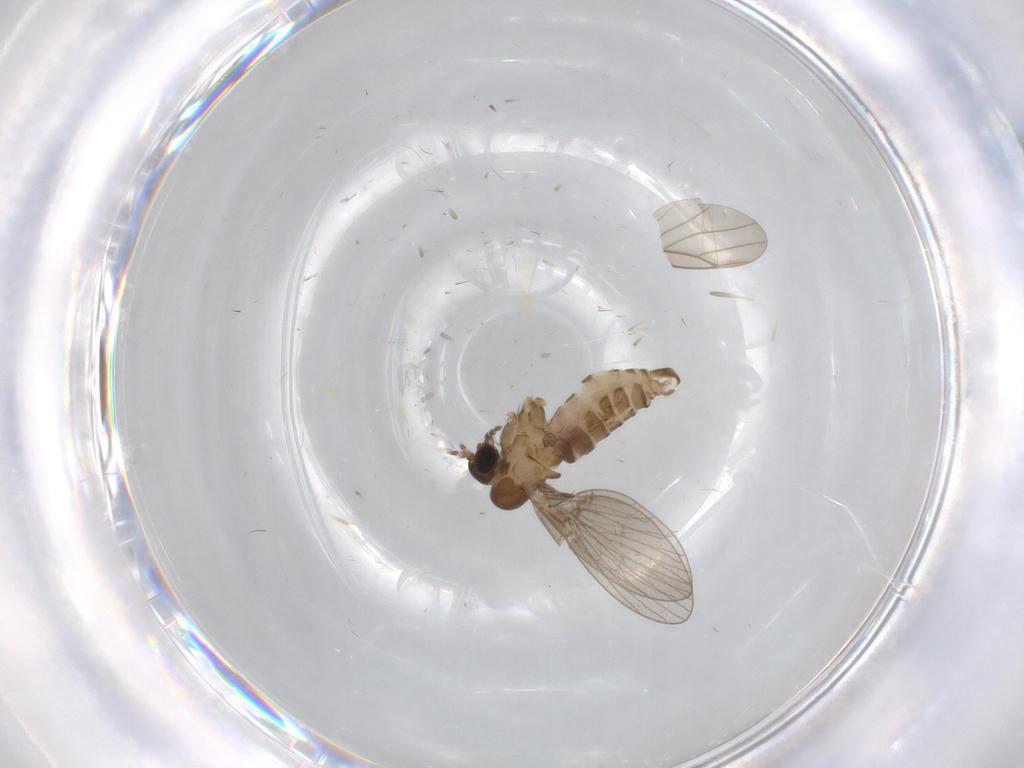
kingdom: Animalia
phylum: Arthropoda
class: Insecta
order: Diptera
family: Psychodidae
